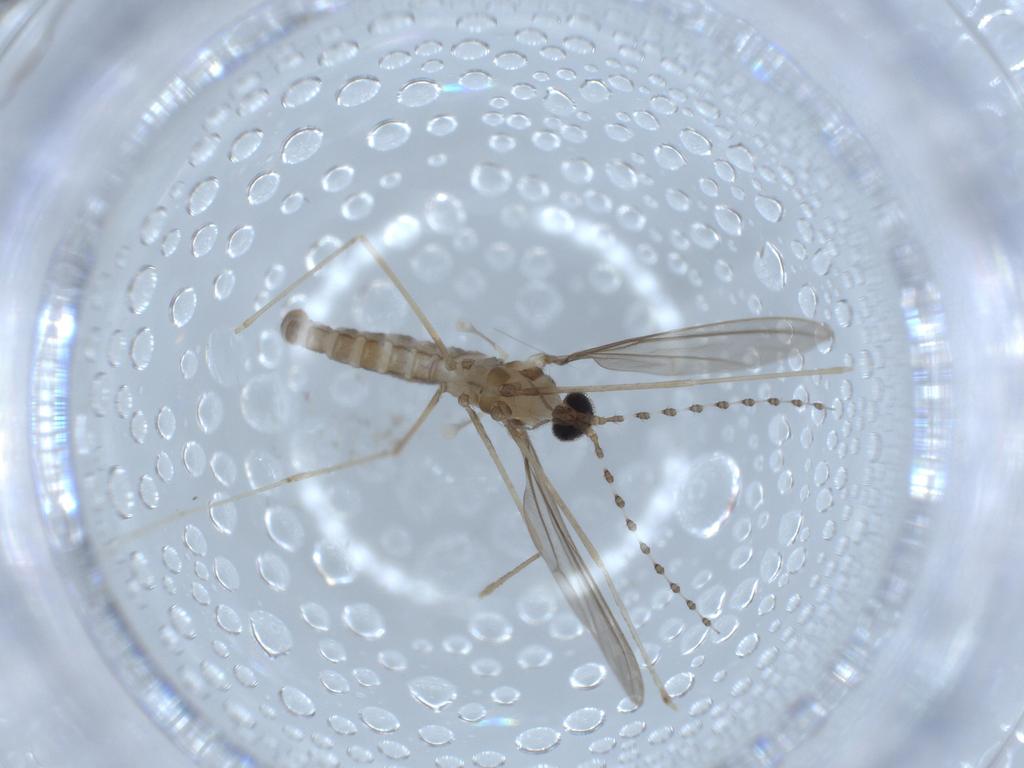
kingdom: Animalia
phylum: Arthropoda
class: Insecta
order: Diptera
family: Cecidomyiidae
